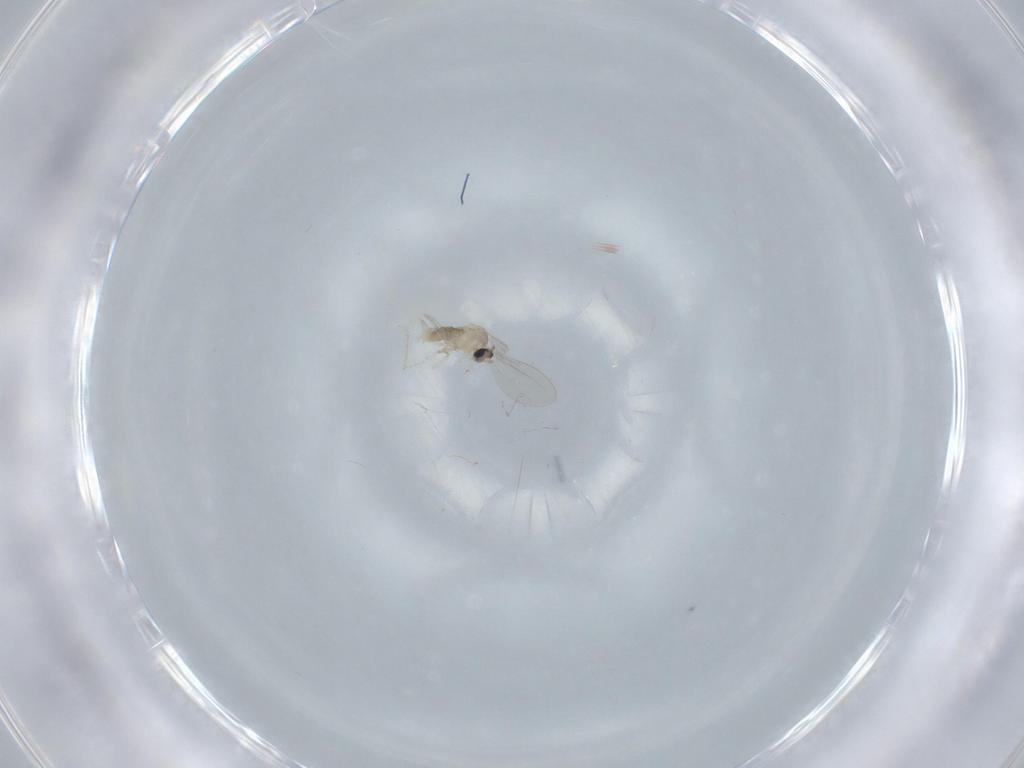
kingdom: Animalia
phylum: Arthropoda
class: Insecta
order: Diptera
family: Cecidomyiidae
